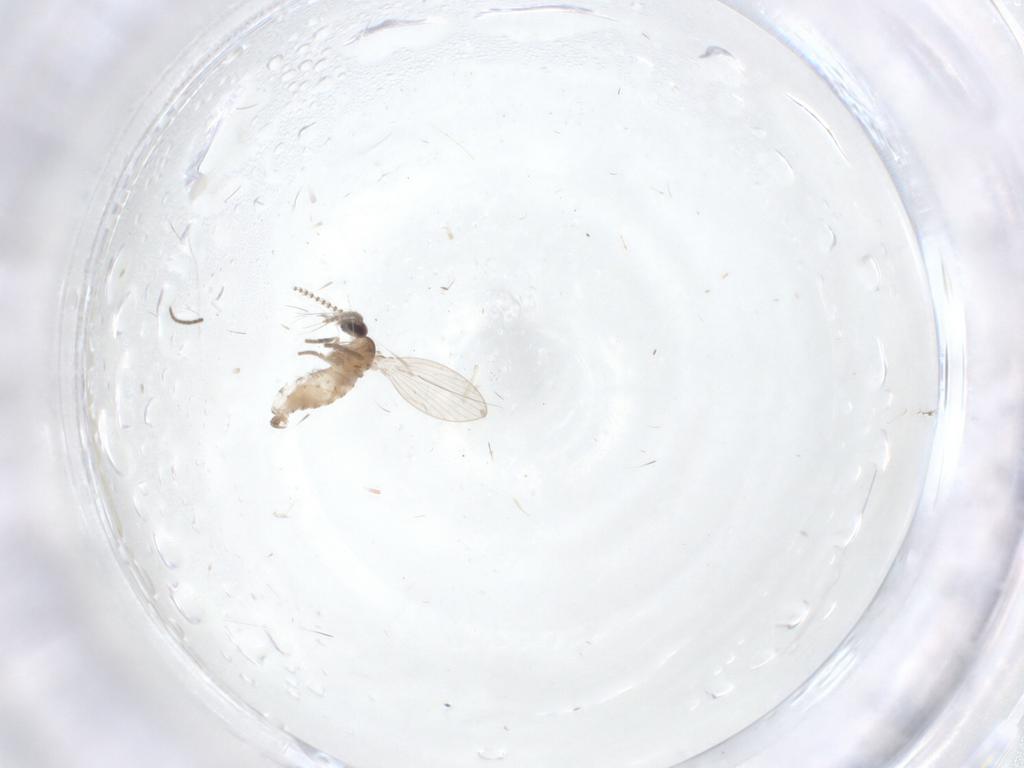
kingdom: Animalia
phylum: Arthropoda
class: Insecta
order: Diptera
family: Psychodidae
